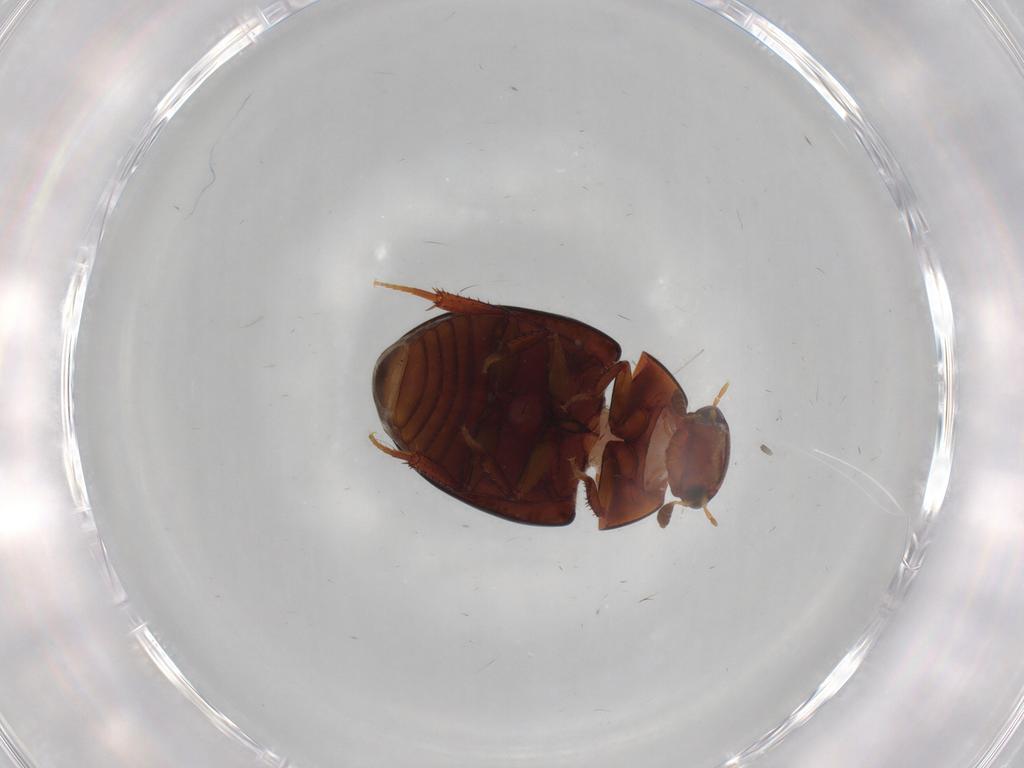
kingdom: Animalia
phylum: Arthropoda
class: Insecta
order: Coleoptera
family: Hydrophilidae
